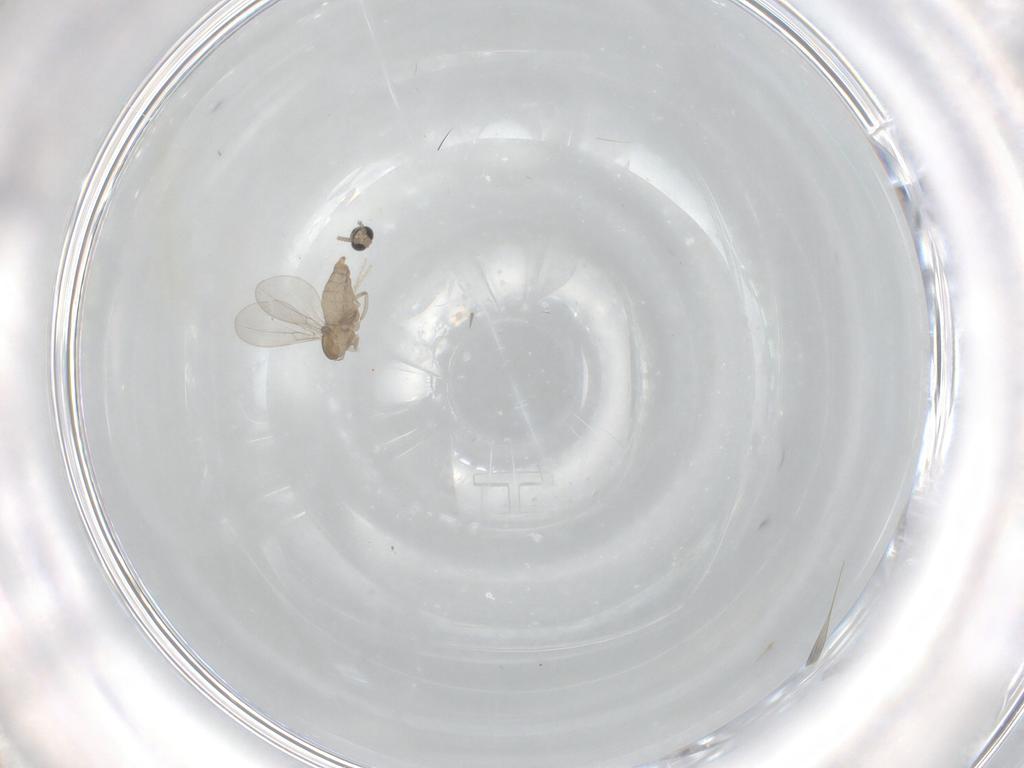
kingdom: Animalia
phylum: Arthropoda
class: Insecta
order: Diptera
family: Cecidomyiidae
